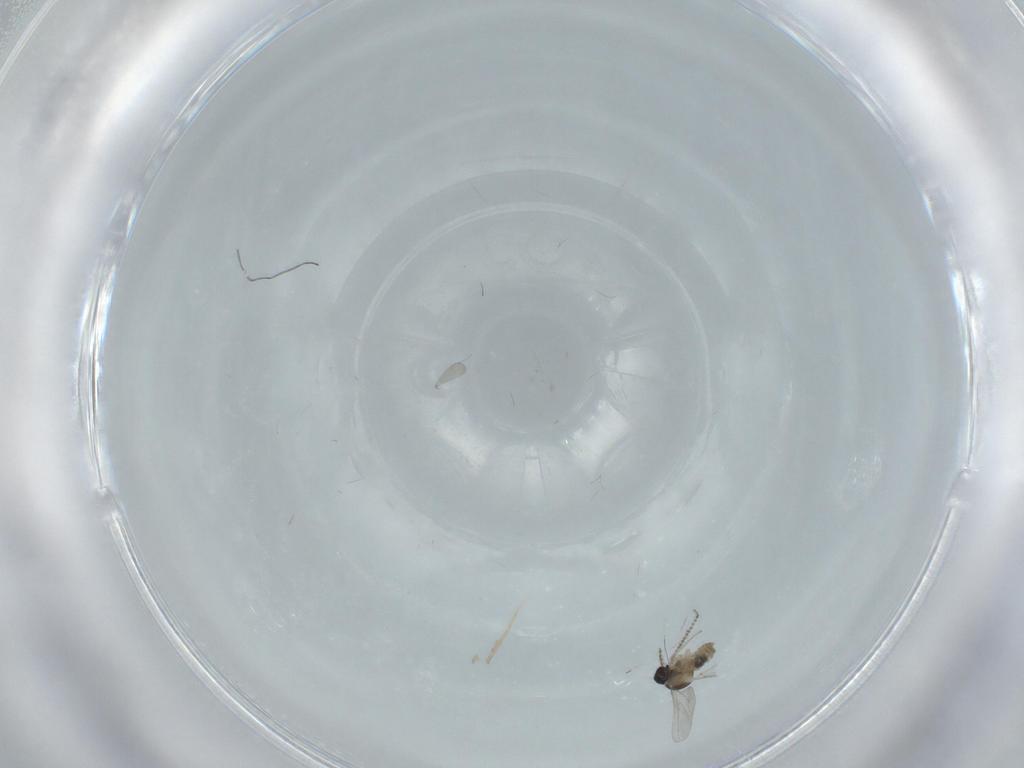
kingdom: Animalia
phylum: Arthropoda
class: Insecta
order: Diptera
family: Cecidomyiidae
